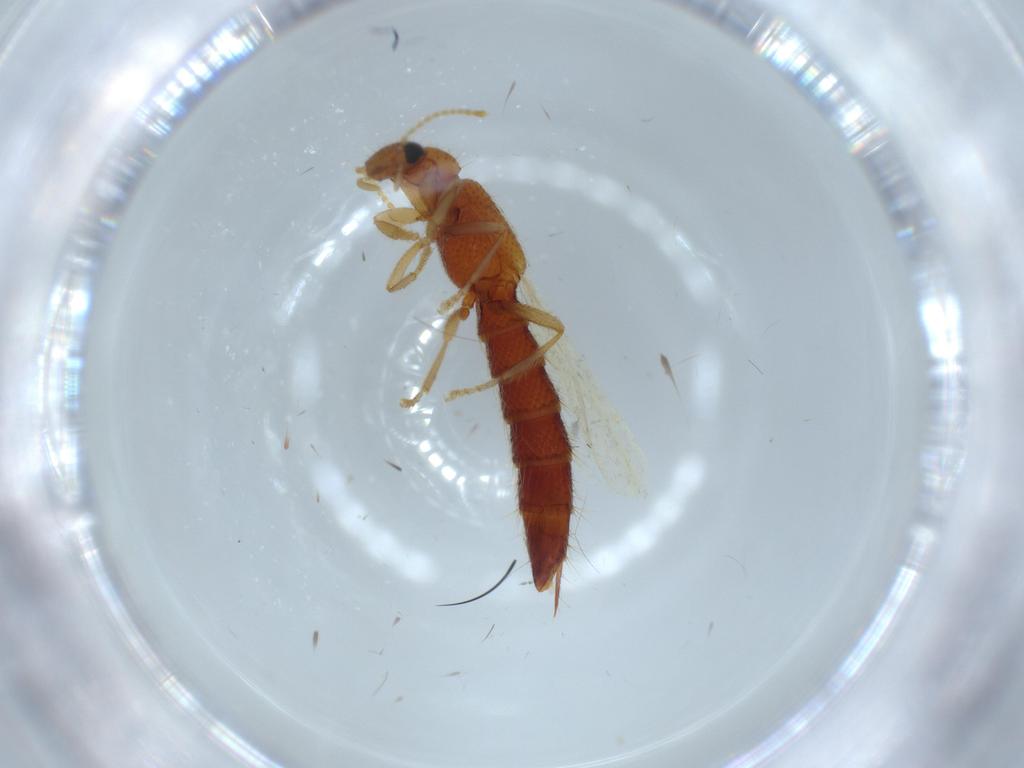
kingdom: Animalia
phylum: Arthropoda
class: Insecta
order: Coleoptera
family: Staphylinidae
